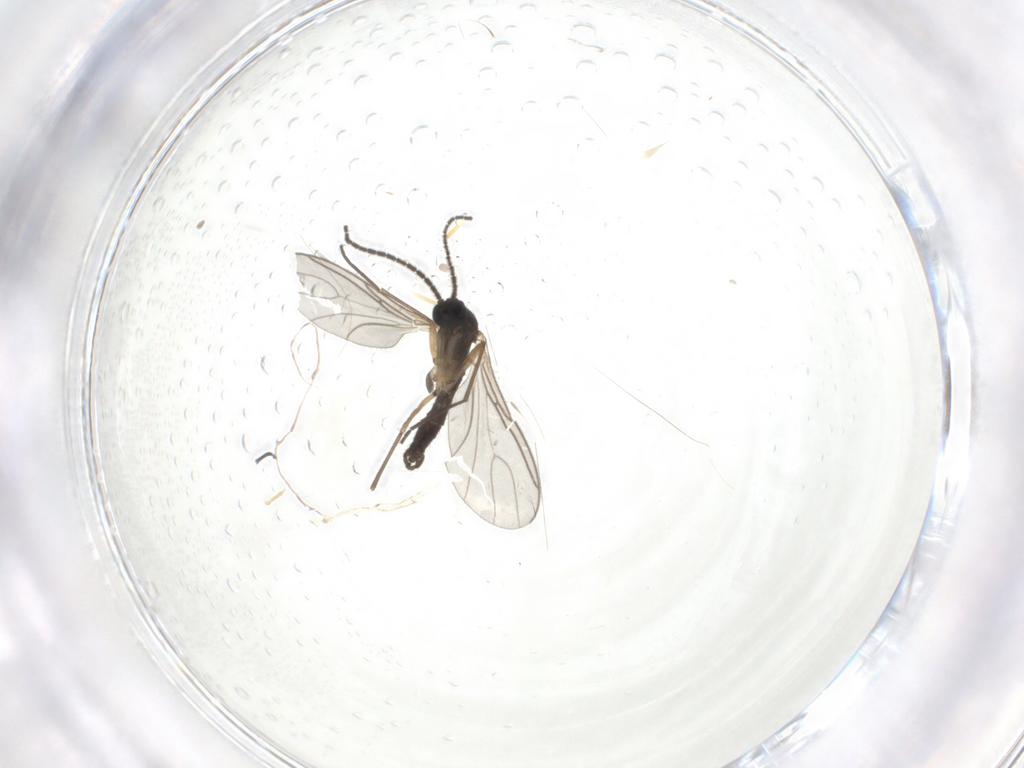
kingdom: Animalia
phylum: Arthropoda
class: Insecta
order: Diptera
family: Sciaridae
